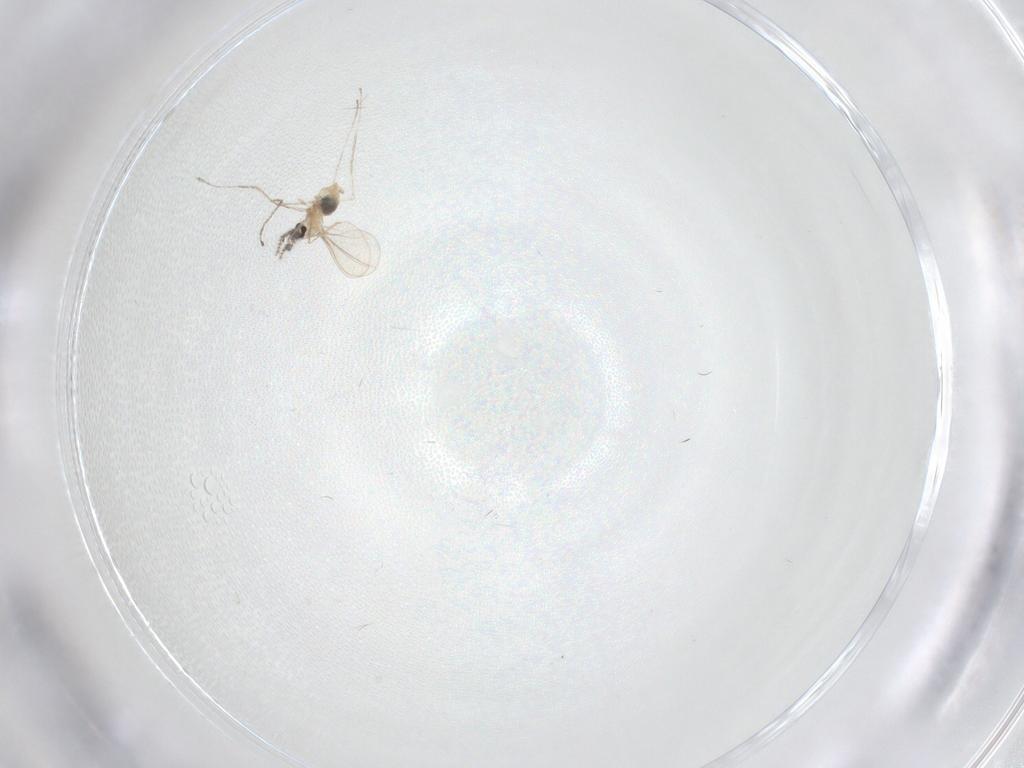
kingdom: Animalia
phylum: Arthropoda
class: Insecta
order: Diptera
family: Cecidomyiidae
